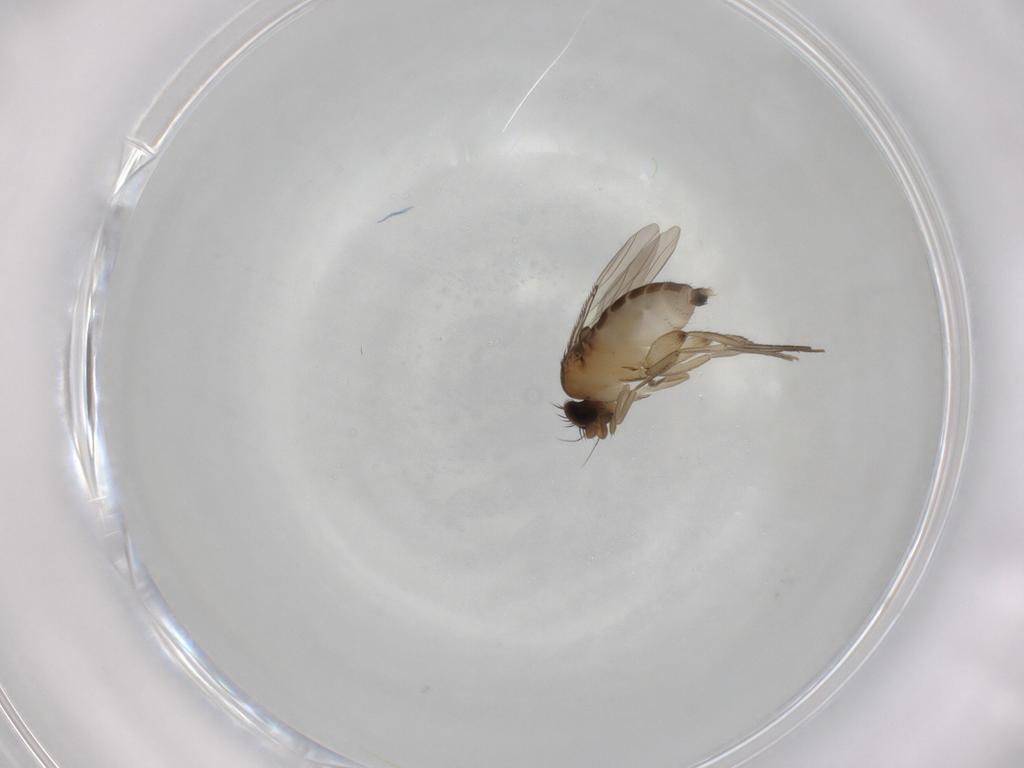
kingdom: Animalia
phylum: Arthropoda
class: Insecta
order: Diptera
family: Phoridae
